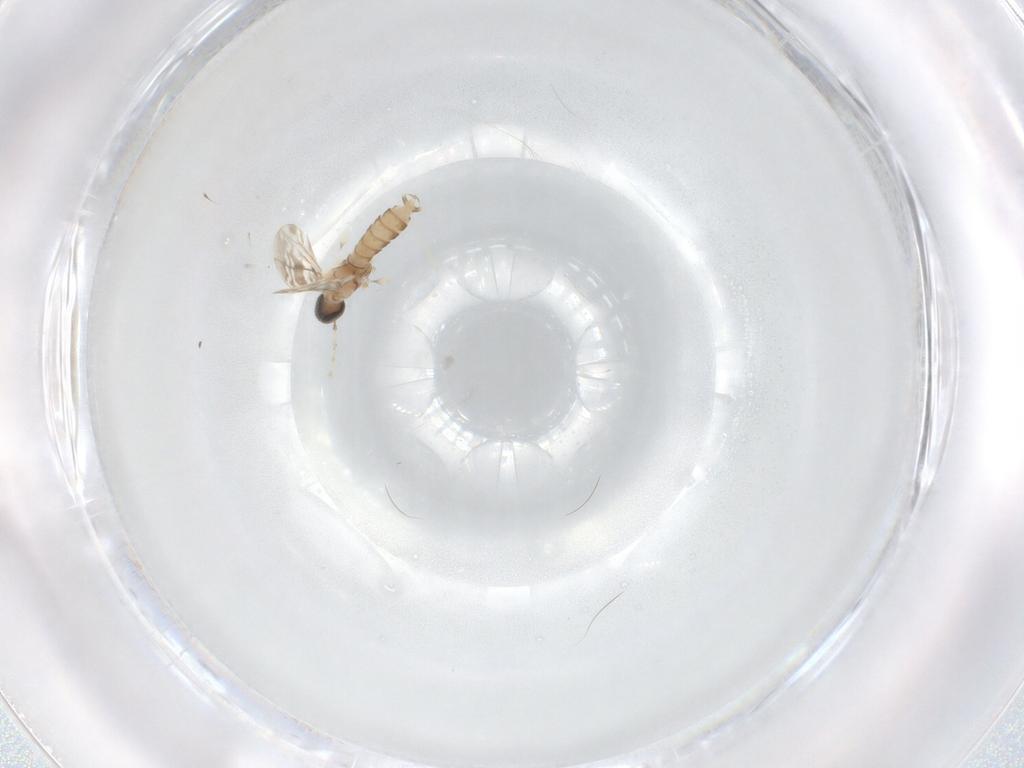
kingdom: Animalia
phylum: Arthropoda
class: Insecta
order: Diptera
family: Cecidomyiidae
